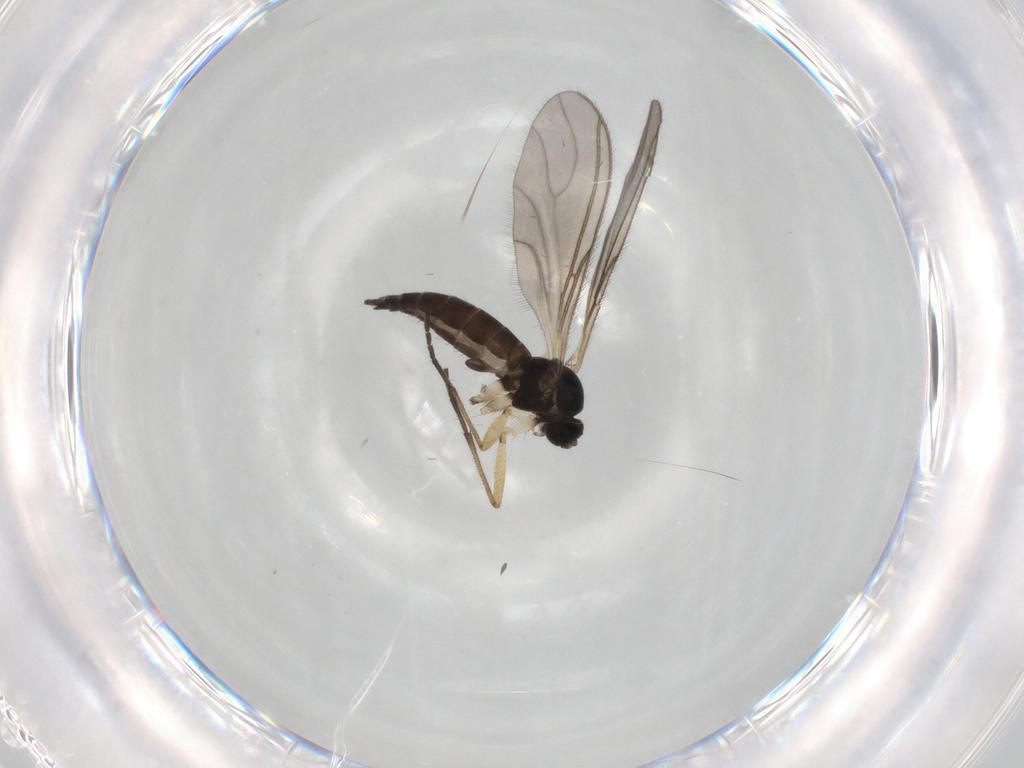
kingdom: Animalia
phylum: Arthropoda
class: Insecta
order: Diptera
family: Sciaridae
